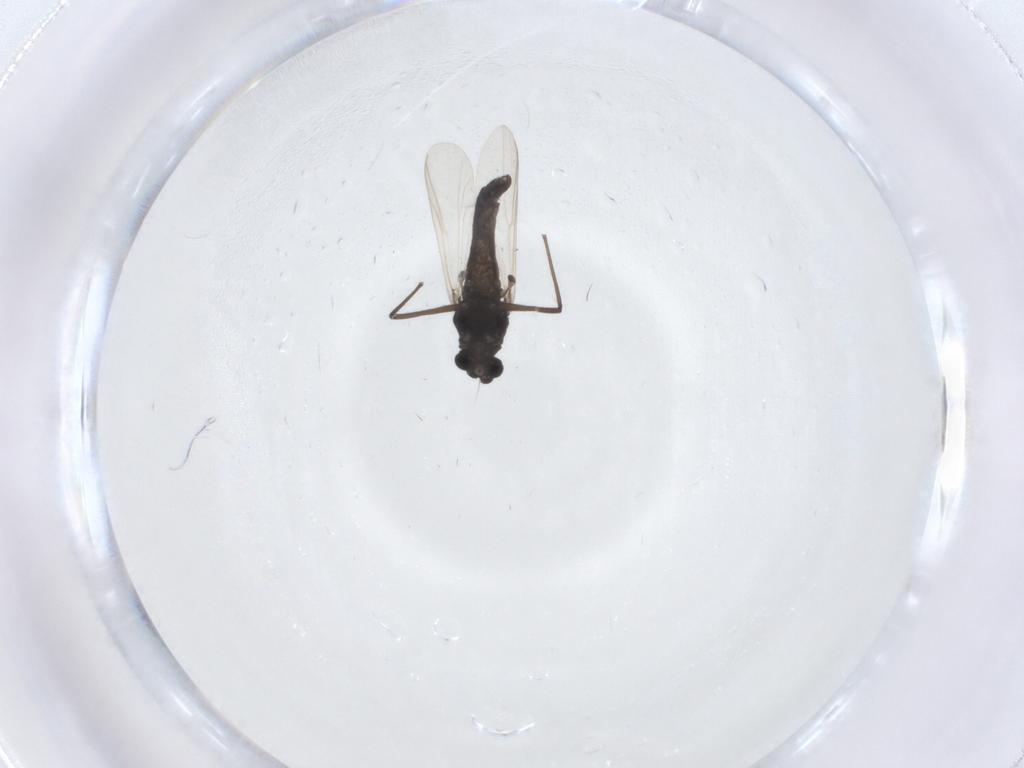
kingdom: Animalia
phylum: Arthropoda
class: Insecta
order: Diptera
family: Chironomidae
